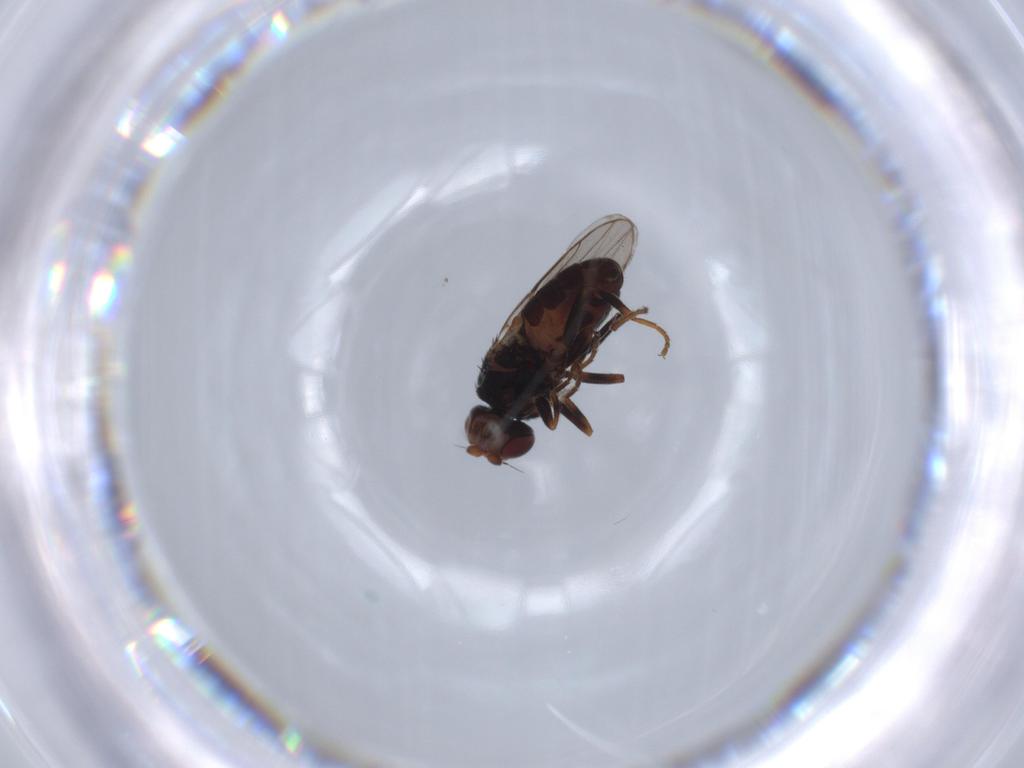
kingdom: Animalia
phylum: Arthropoda
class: Insecta
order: Diptera
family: Chloropidae
